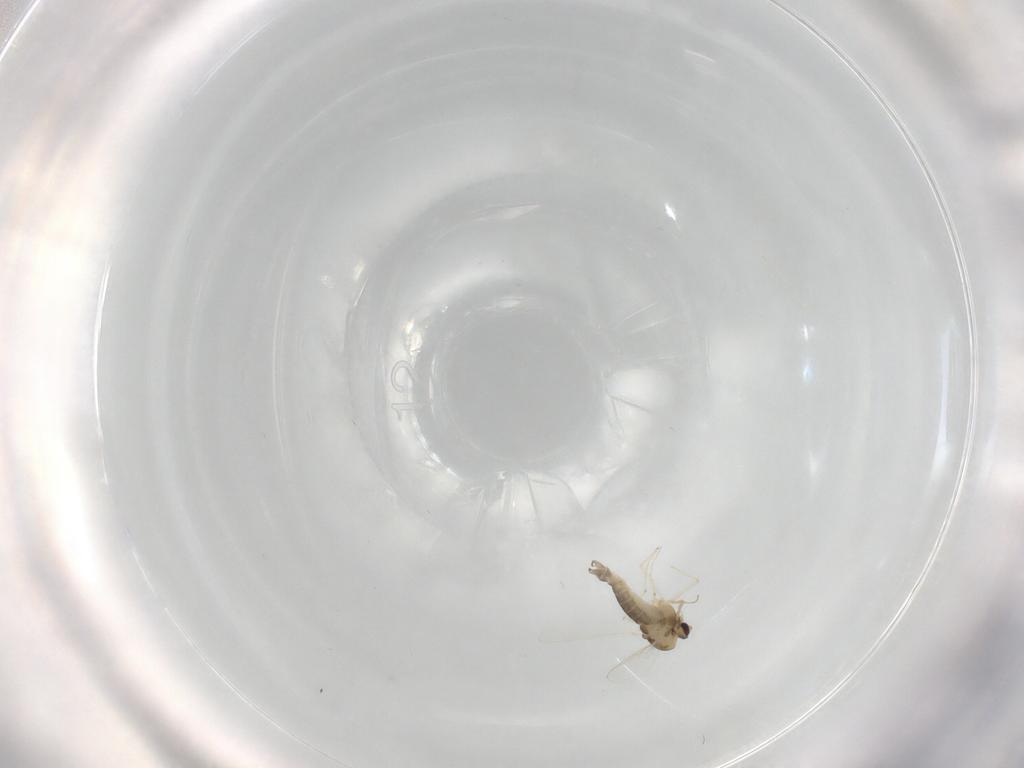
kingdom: Animalia
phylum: Arthropoda
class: Insecta
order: Diptera
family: Chironomidae
